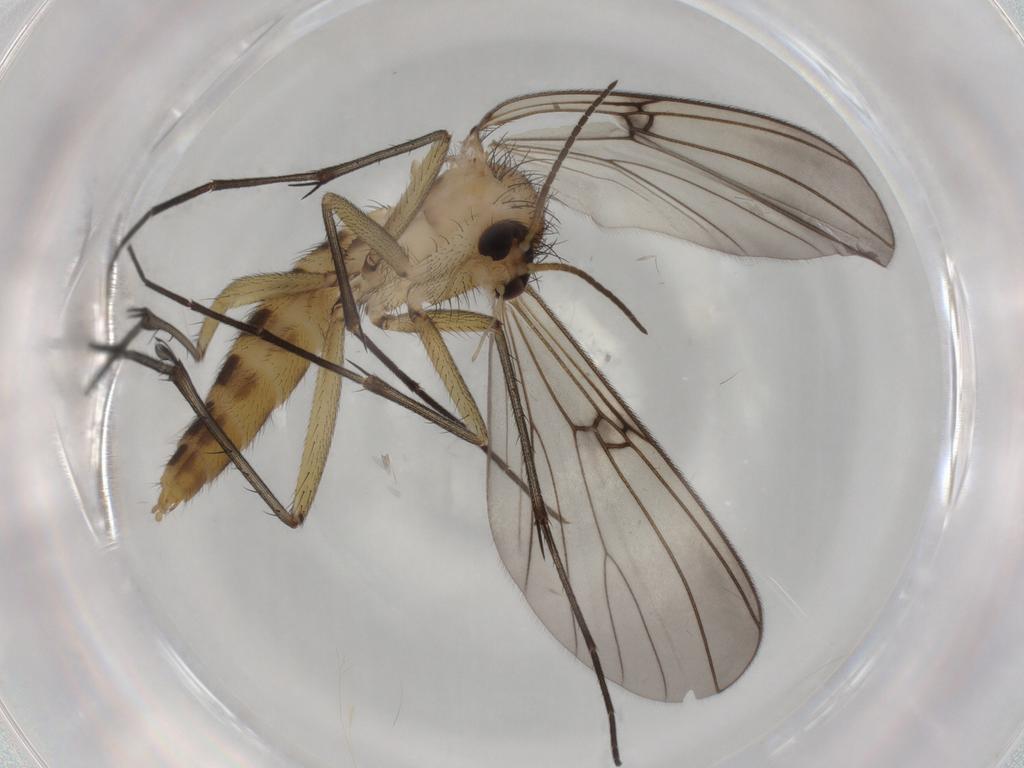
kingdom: Animalia
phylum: Arthropoda
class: Insecta
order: Diptera
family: Mycetophilidae
